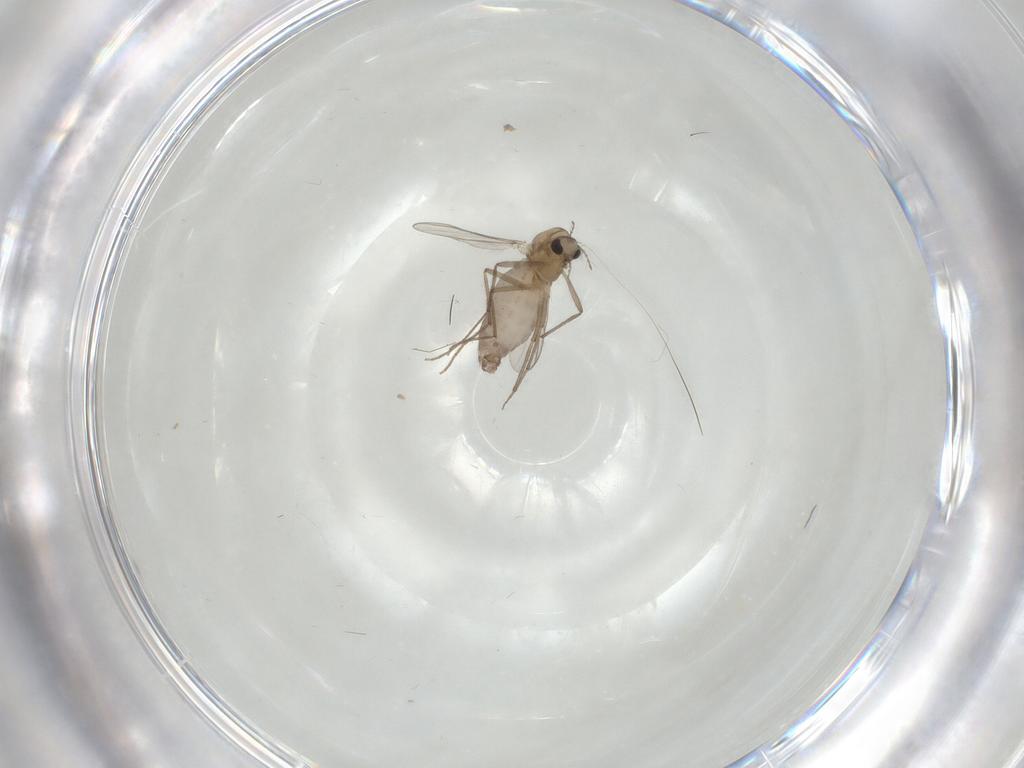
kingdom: Animalia
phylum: Arthropoda
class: Insecta
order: Diptera
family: Chironomidae
